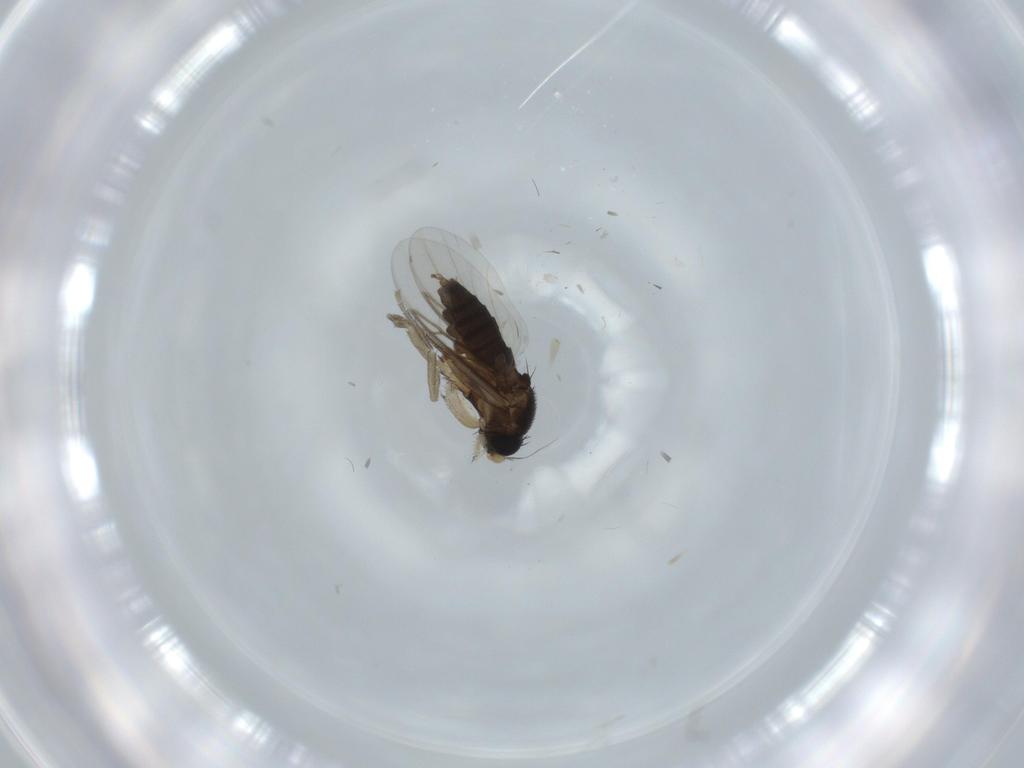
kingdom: Animalia
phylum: Arthropoda
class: Insecta
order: Diptera
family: Phoridae
